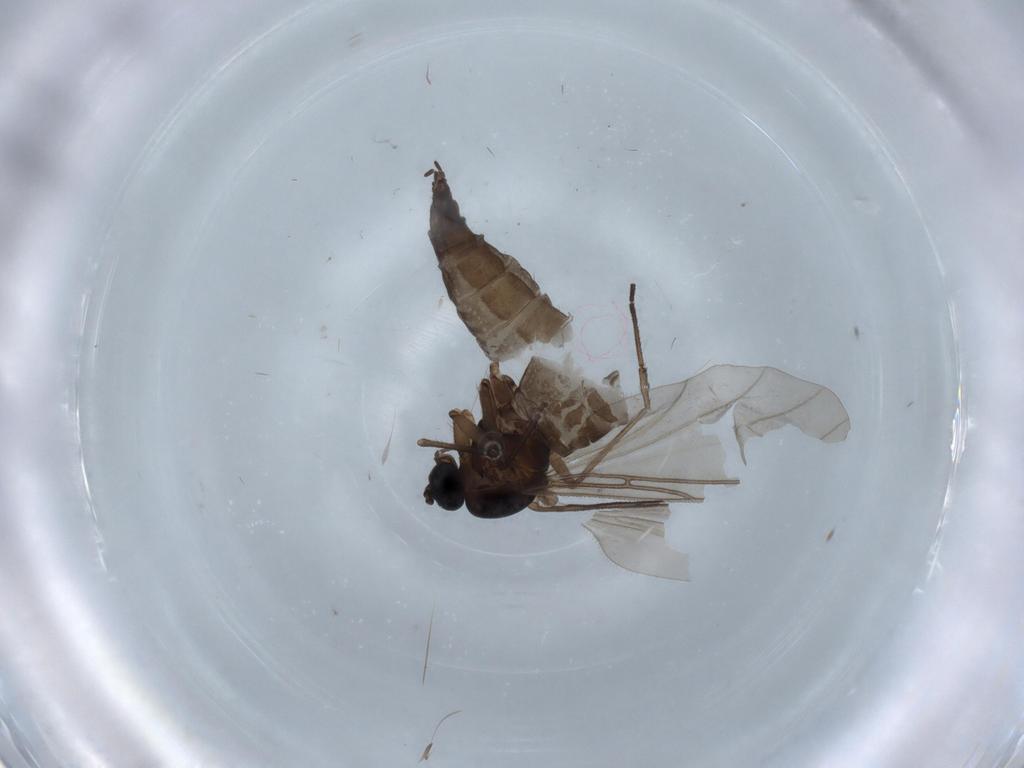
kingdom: Animalia
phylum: Arthropoda
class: Insecta
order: Diptera
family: Sciaridae
